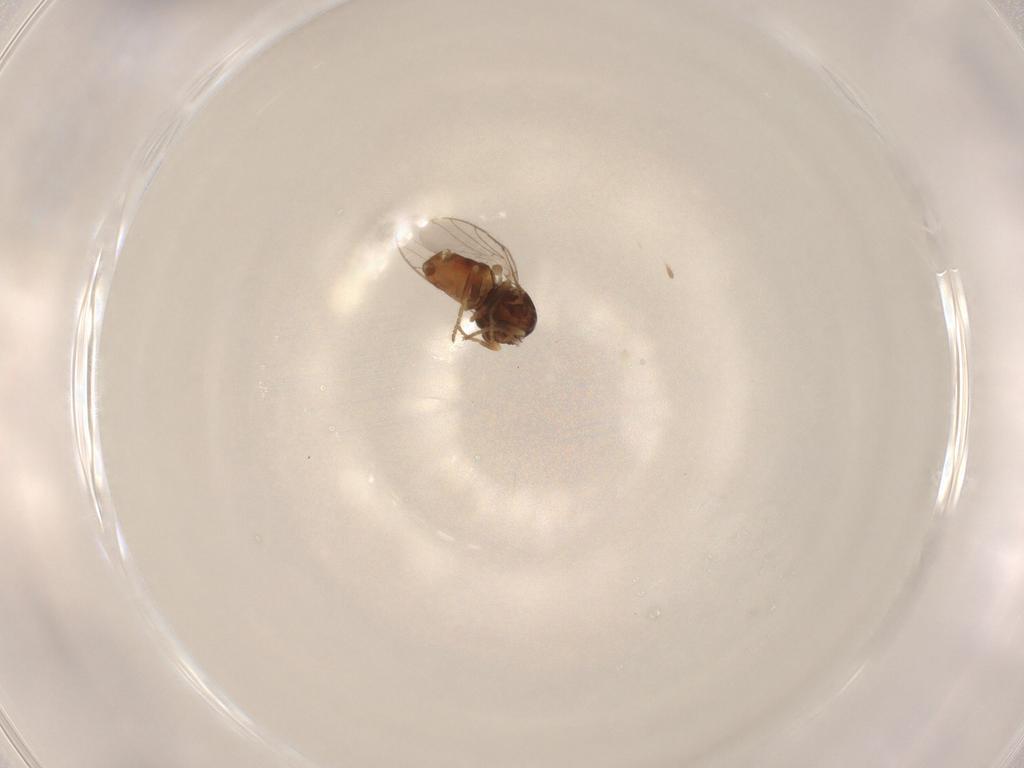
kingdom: Animalia
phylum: Arthropoda
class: Insecta
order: Diptera
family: Chloropidae
